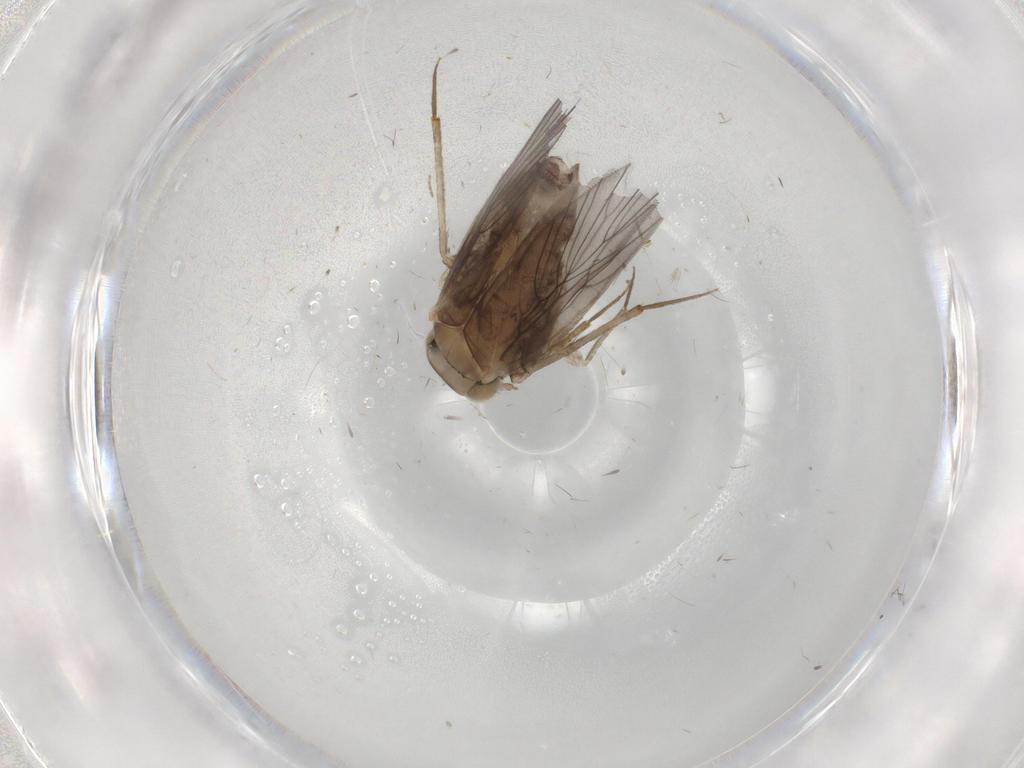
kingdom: Animalia
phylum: Arthropoda
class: Insecta
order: Psocodea
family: Lepidopsocidae
